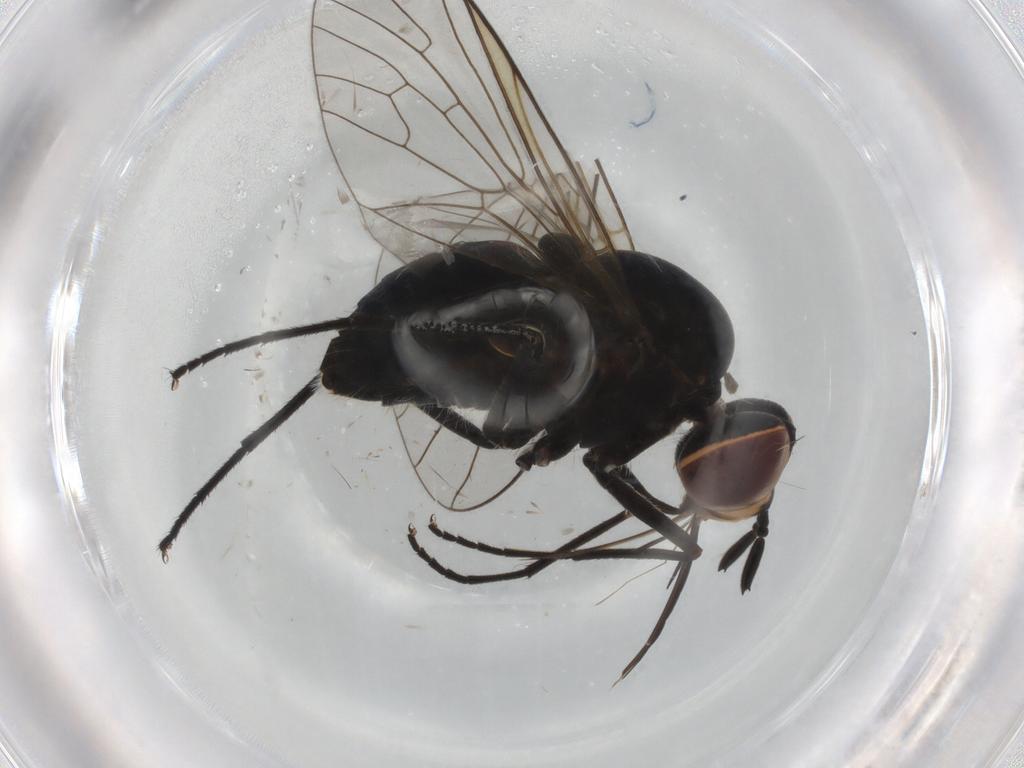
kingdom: Animalia
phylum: Arthropoda
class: Insecta
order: Diptera
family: Bombyliidae
